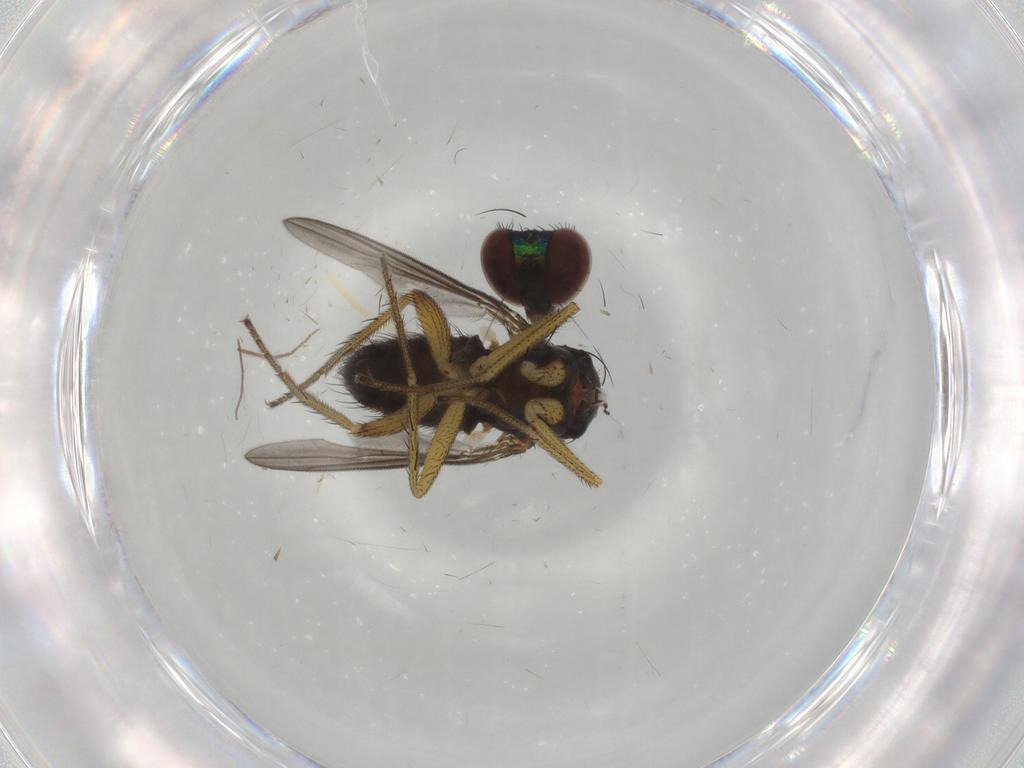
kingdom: Animalia
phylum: Arthropoda
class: Insecta
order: Diptera
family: Dolichopodidae
